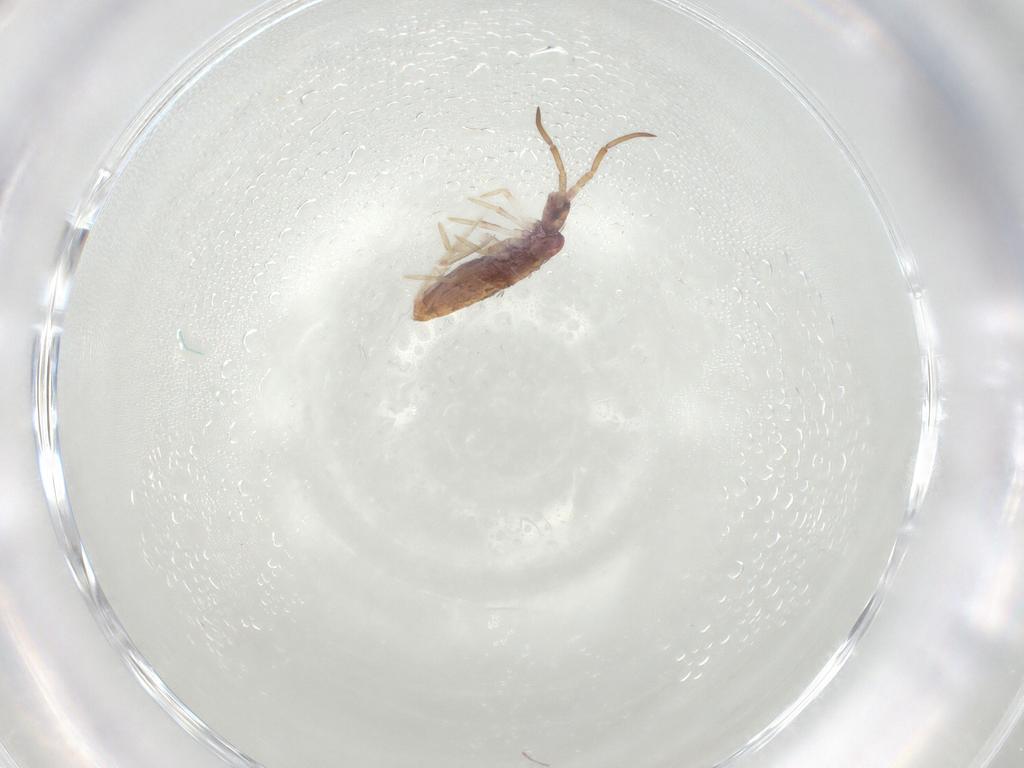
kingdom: Animalia
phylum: Arthropoda
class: Collembola
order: Entomobryomorpha
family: Entomobryidae
